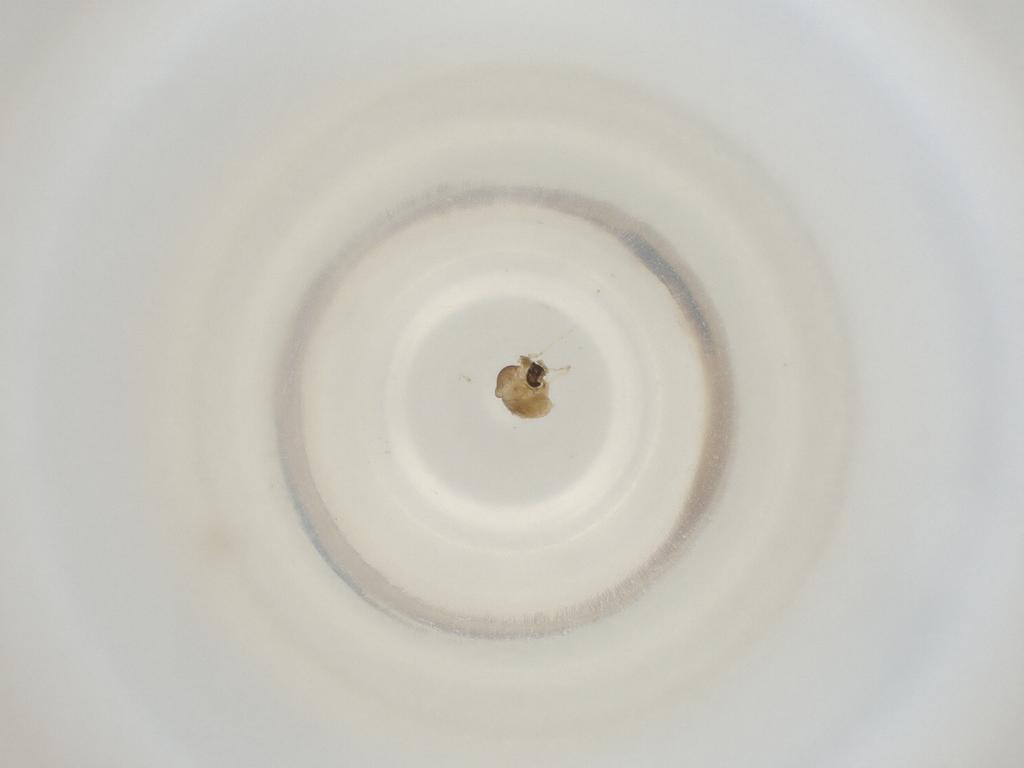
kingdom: Animalia
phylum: Arthropoda
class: Insecta
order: Diptera
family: Cecidomyiidae
